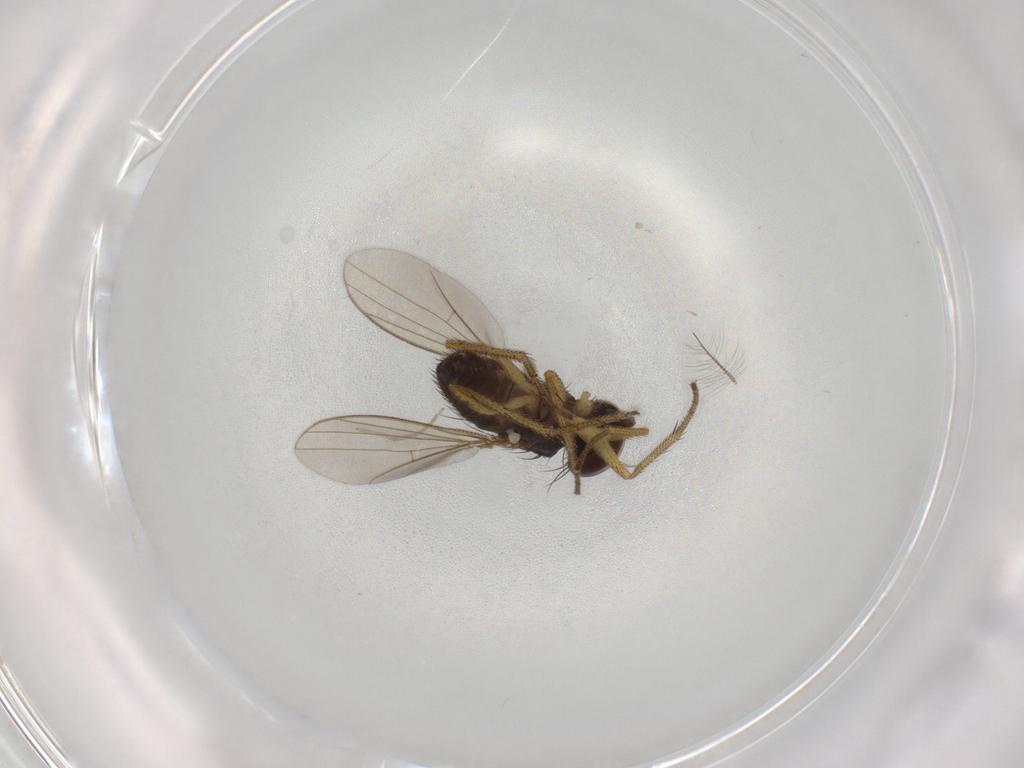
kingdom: Animalia
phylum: Arthropoda
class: Insecta
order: Diptera
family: Chironomidae
